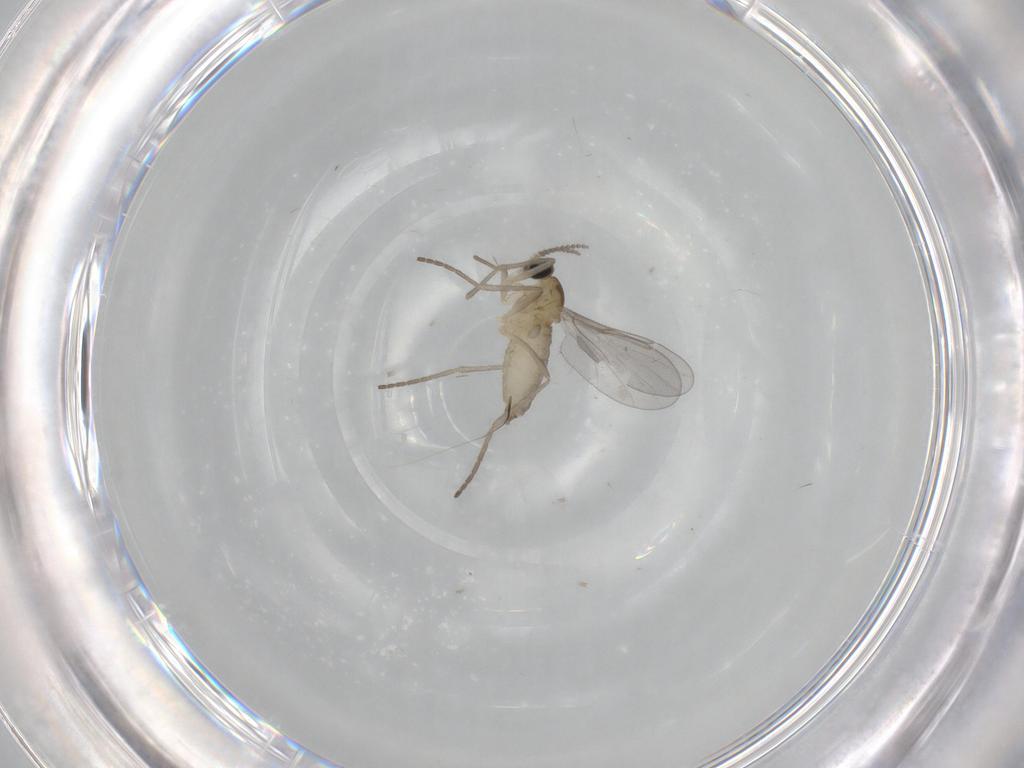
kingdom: Animalia
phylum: Arthropoda
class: Insecta
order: Diptera
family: Cecidomyiidae
